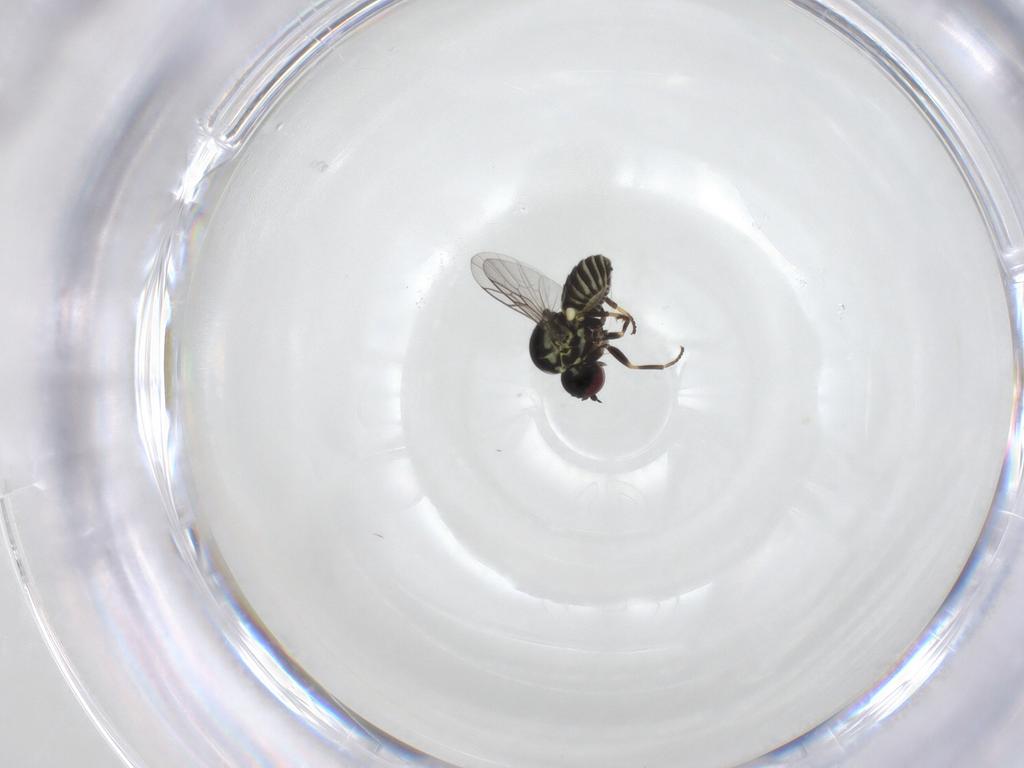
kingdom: Animalia
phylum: Arthropoda
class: Insecta
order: Diptera
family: Mythicomyiidae
